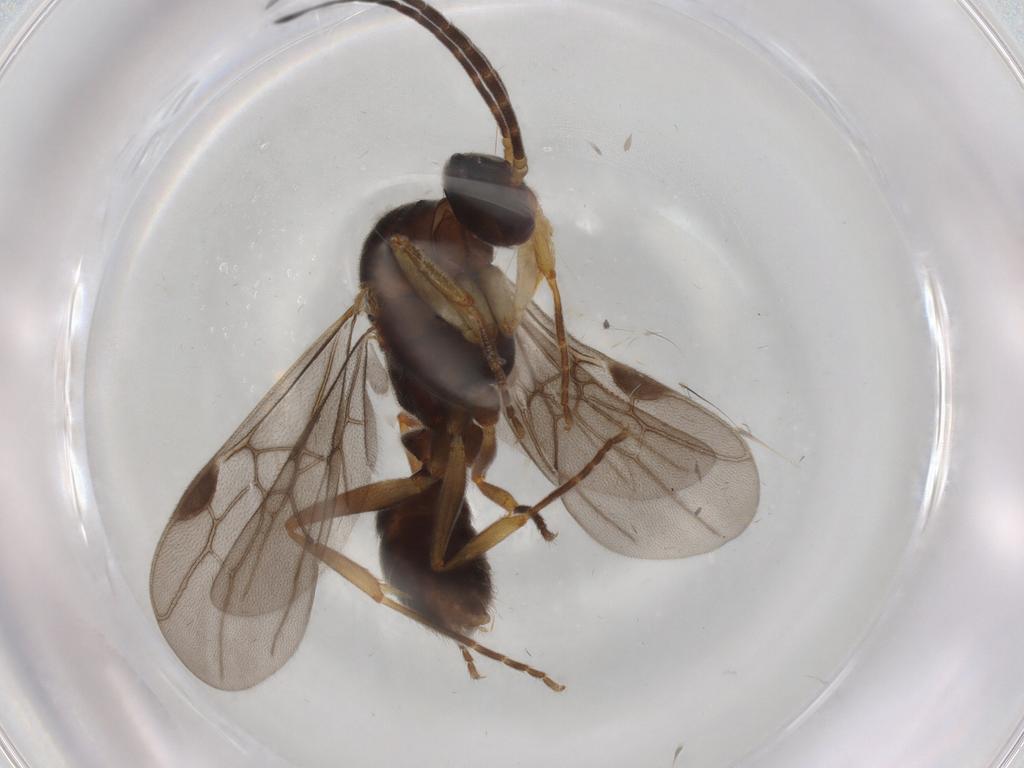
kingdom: Animalia
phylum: Arthropoda
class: Insecta
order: Hymenoptera
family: Formicidae
